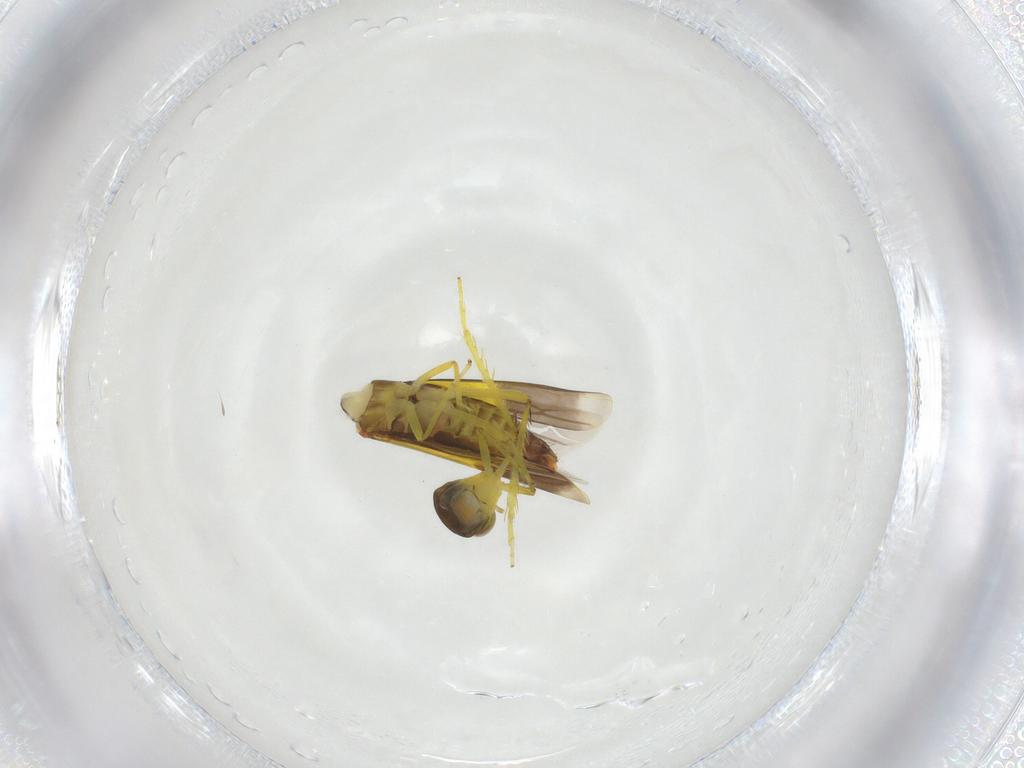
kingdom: Animalia
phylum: Arthropoda
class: Insecta
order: Hemiptera
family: Cicadellidae
